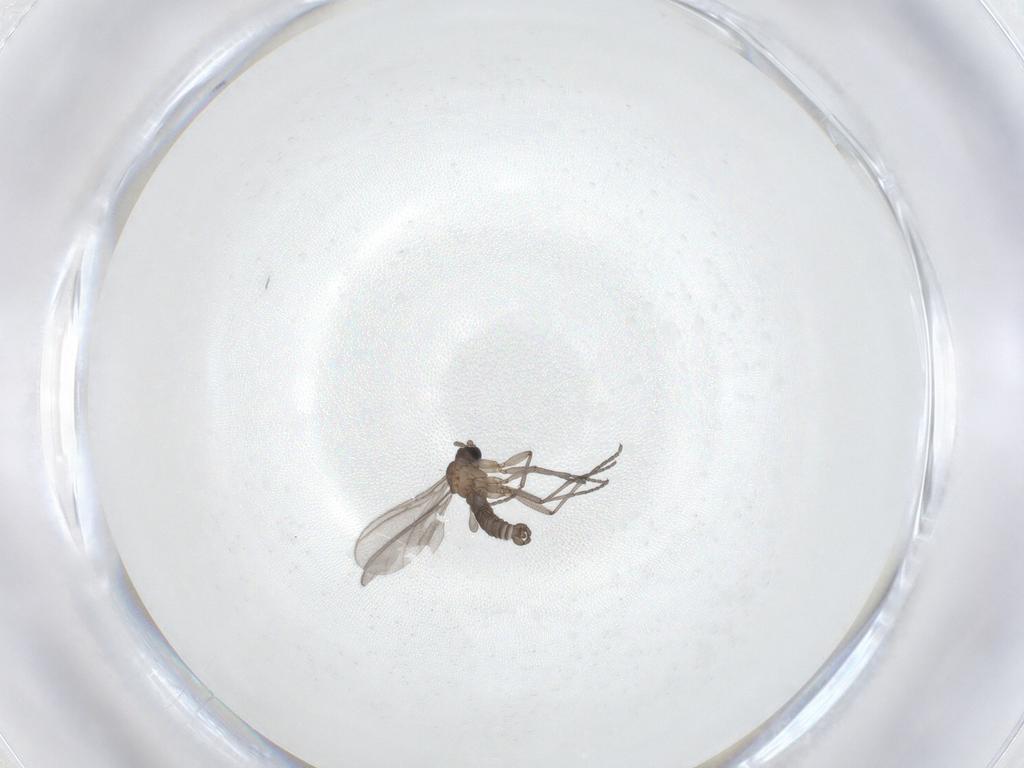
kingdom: Animalia
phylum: Arthropoda
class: Insecta
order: Diptera
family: Sciaridae
